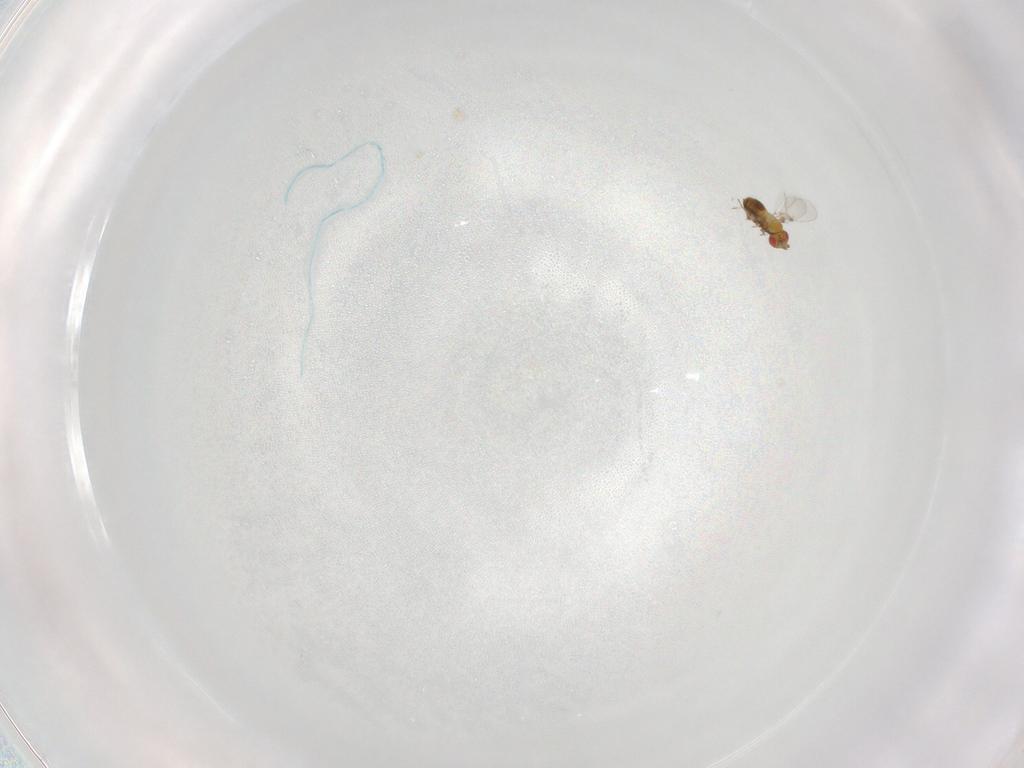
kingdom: Animalia
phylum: Arthropoda
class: Insecta
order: Hymenoptera
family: Trichogrammatidae
